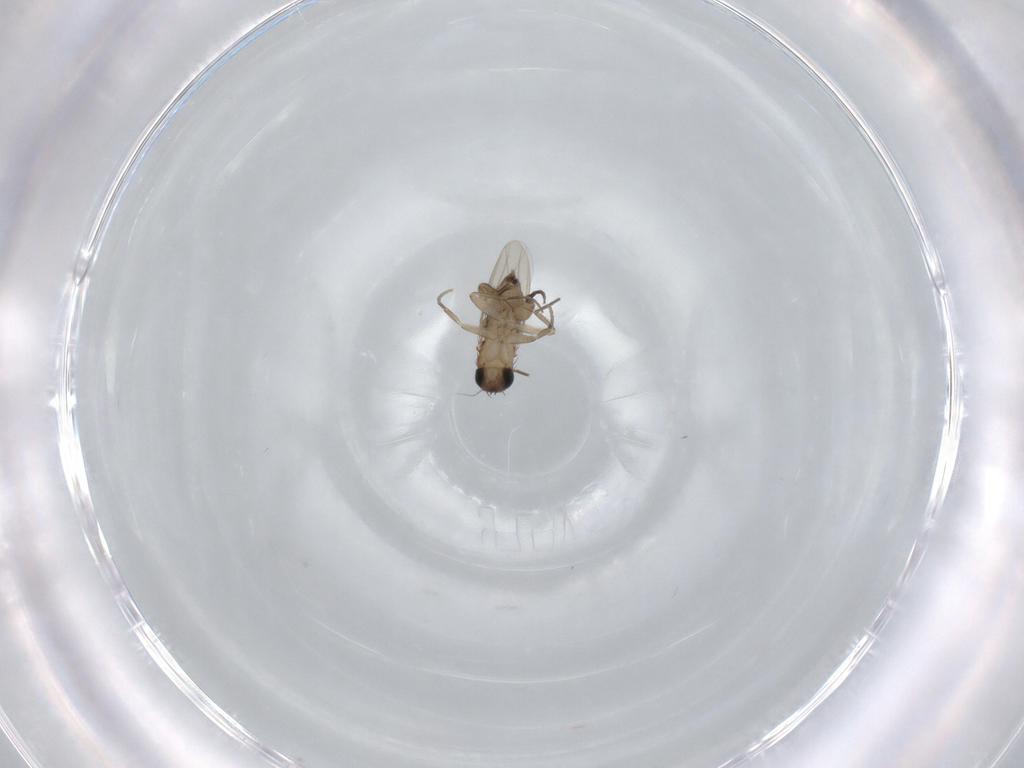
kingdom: Animalia
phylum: Arthropoda
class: Insecta
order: Diptera
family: Phoridae
